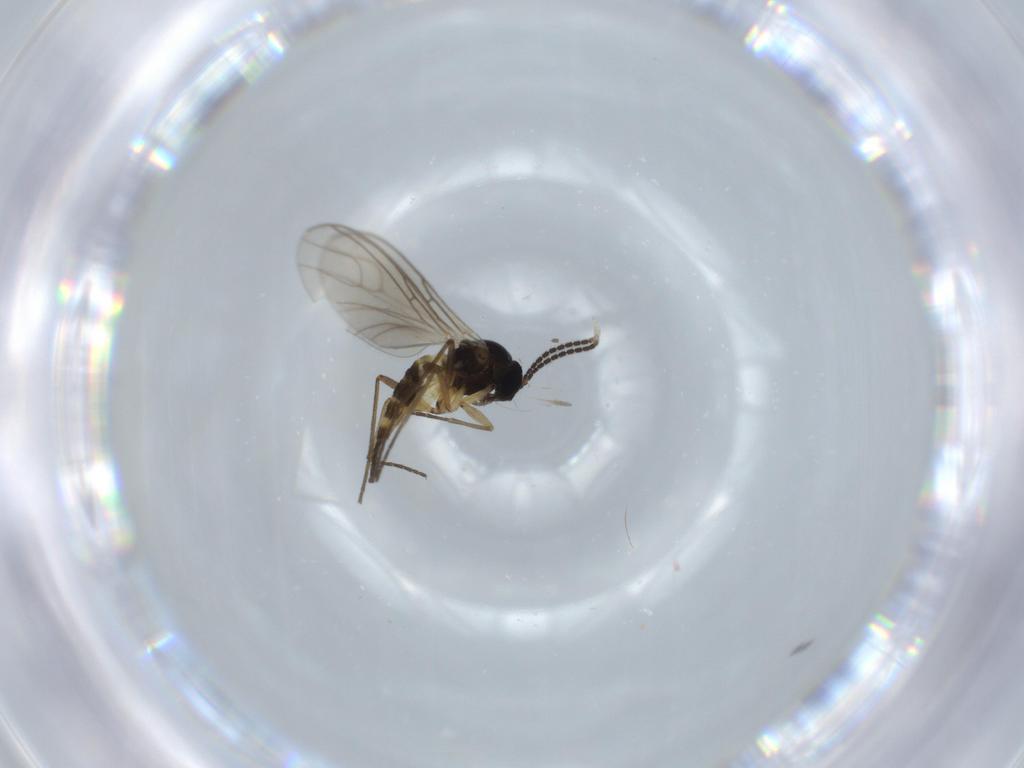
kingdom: Animalia
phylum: Arthropoda
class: Insecta
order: Diptera
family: Sciaridae
